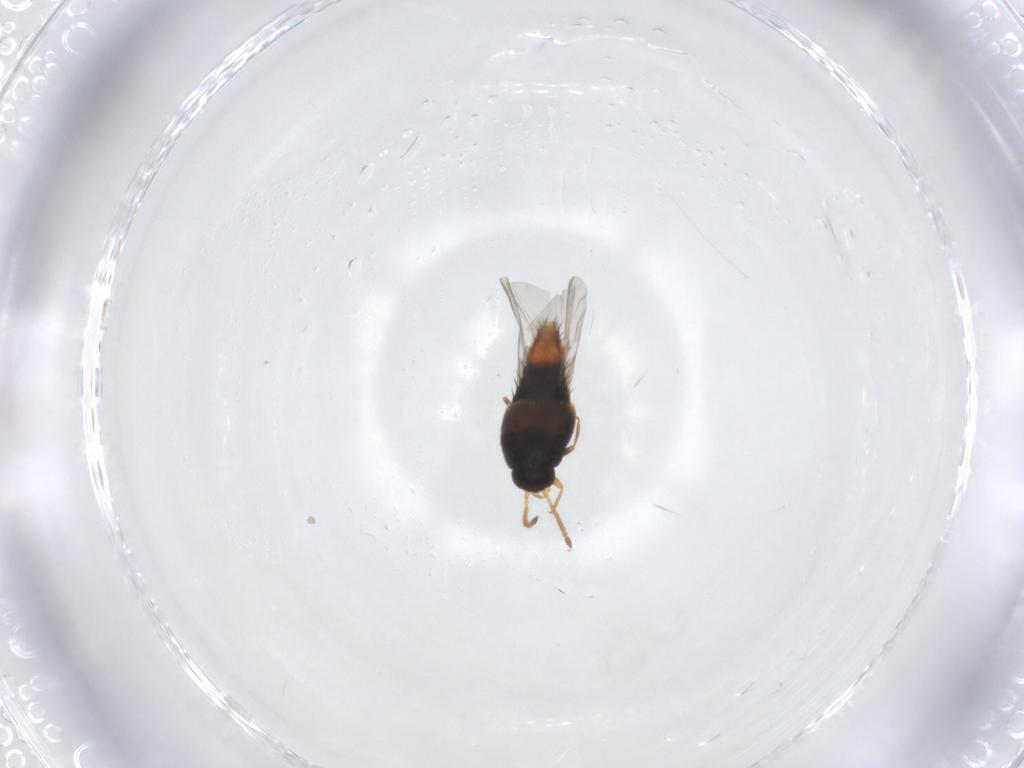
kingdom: Animalia
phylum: Arthropoda
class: Insecta
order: Coleoptera
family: Staphylinidae
